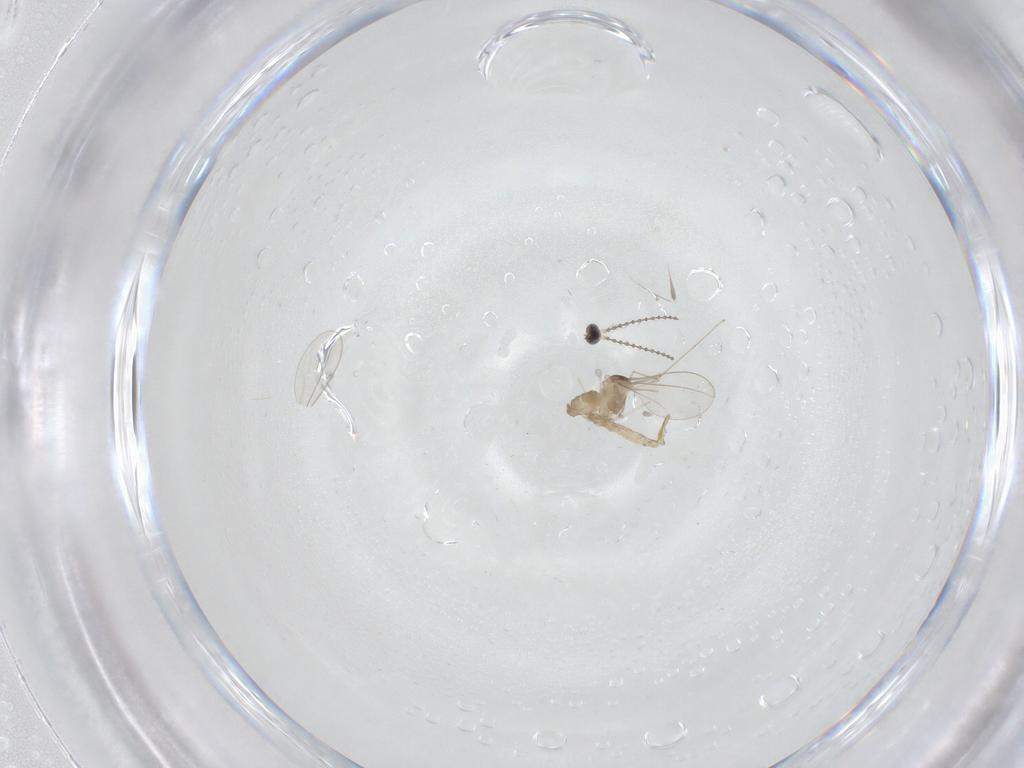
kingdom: Animalia
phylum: Arthropoda
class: Insecta
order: Diptera
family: Cecidomyiidae
